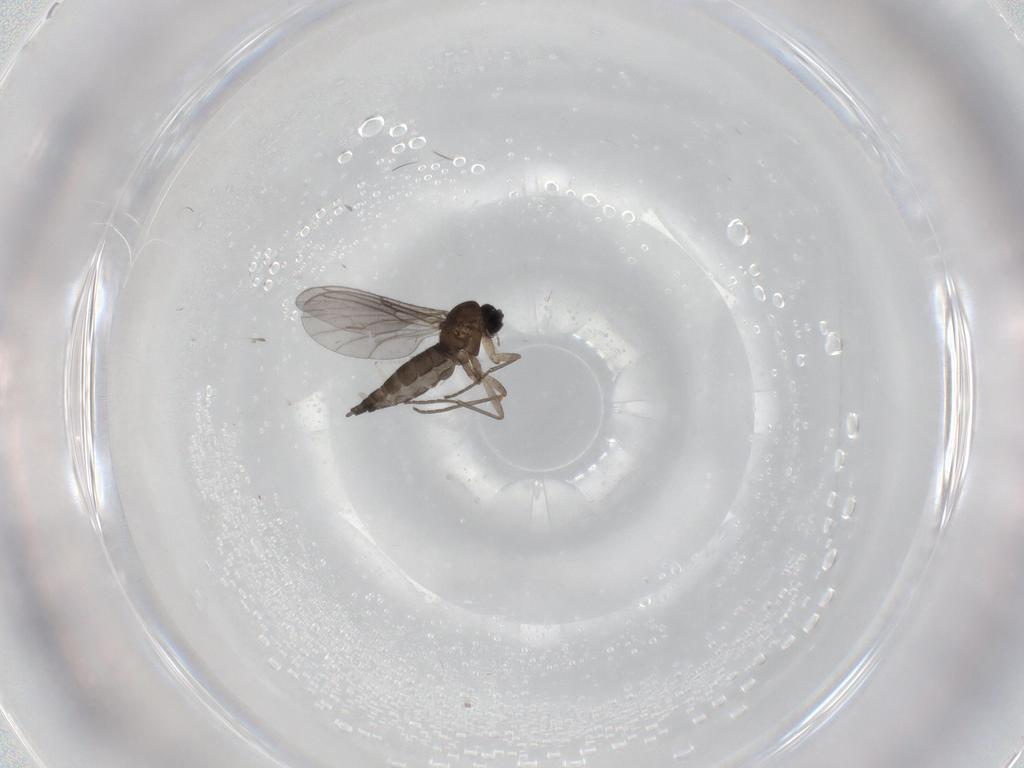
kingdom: Animalia
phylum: Arthropoda
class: Insecta
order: Diptera
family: Sciaridae
